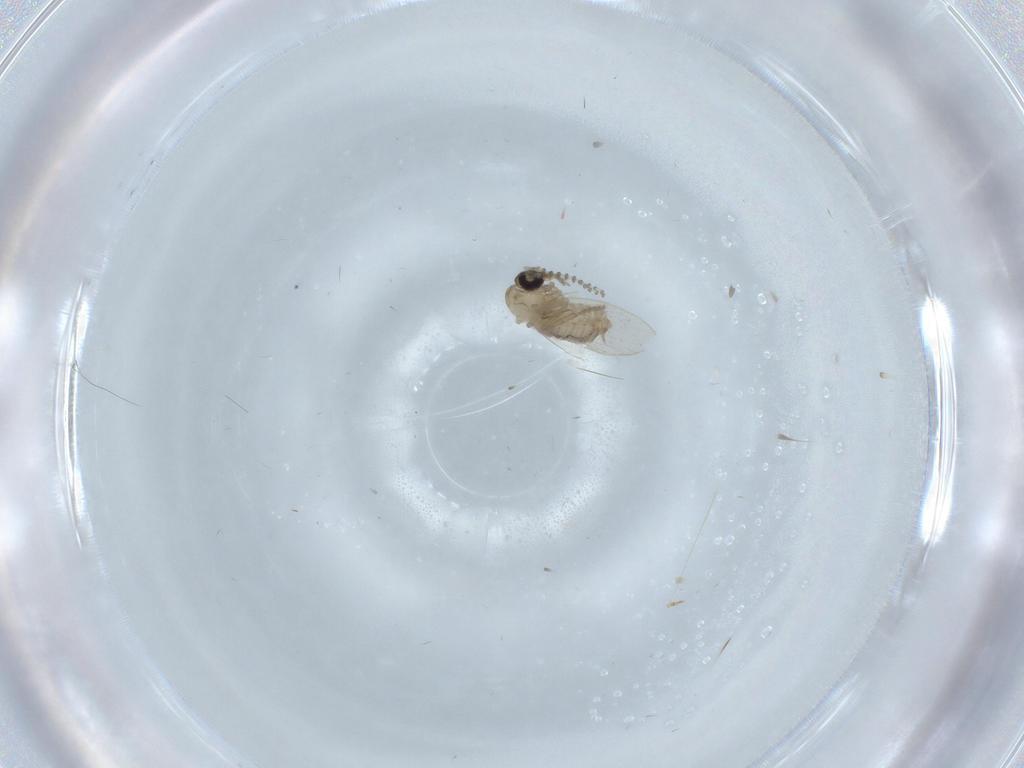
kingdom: Animalia
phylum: Arthropoda
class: Insecta
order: Diptera
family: Psychodidae
